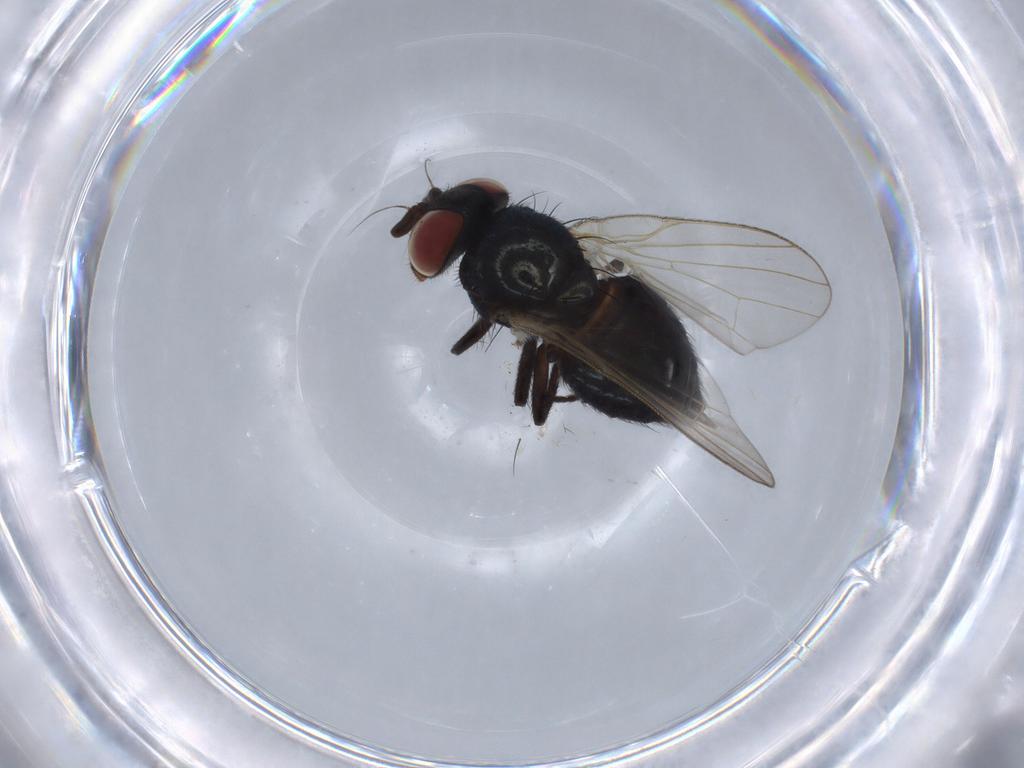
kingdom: Animalia
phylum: Arthropoda
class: Insecta
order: Diptera
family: Lonchaeidae
